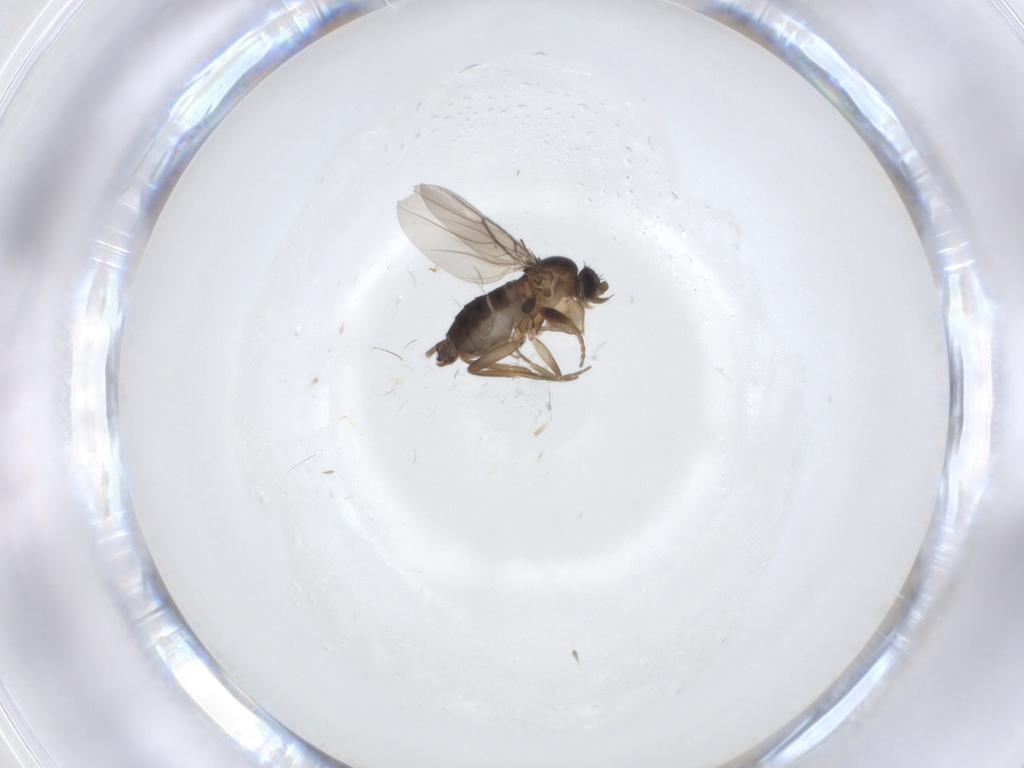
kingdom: Animalia
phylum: Arthropoda
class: Insecta
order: Diptera
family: Phoridae
